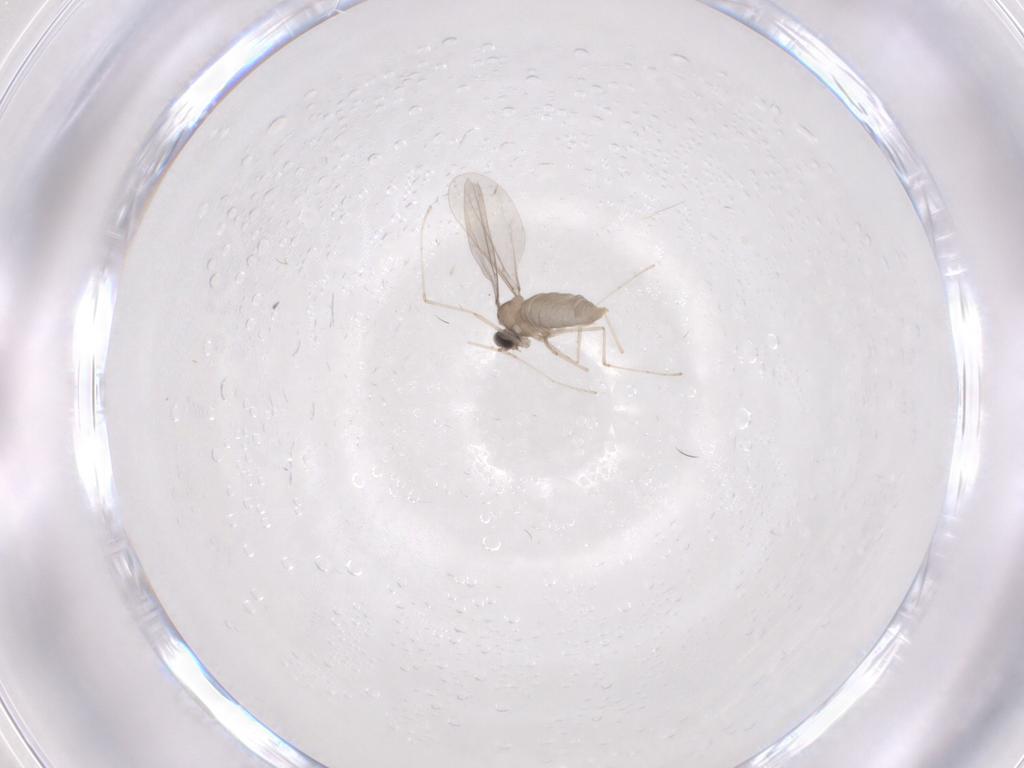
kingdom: Animalia
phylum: Arthropoda
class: Insecta
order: Diptera
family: Cecidomyiidae
